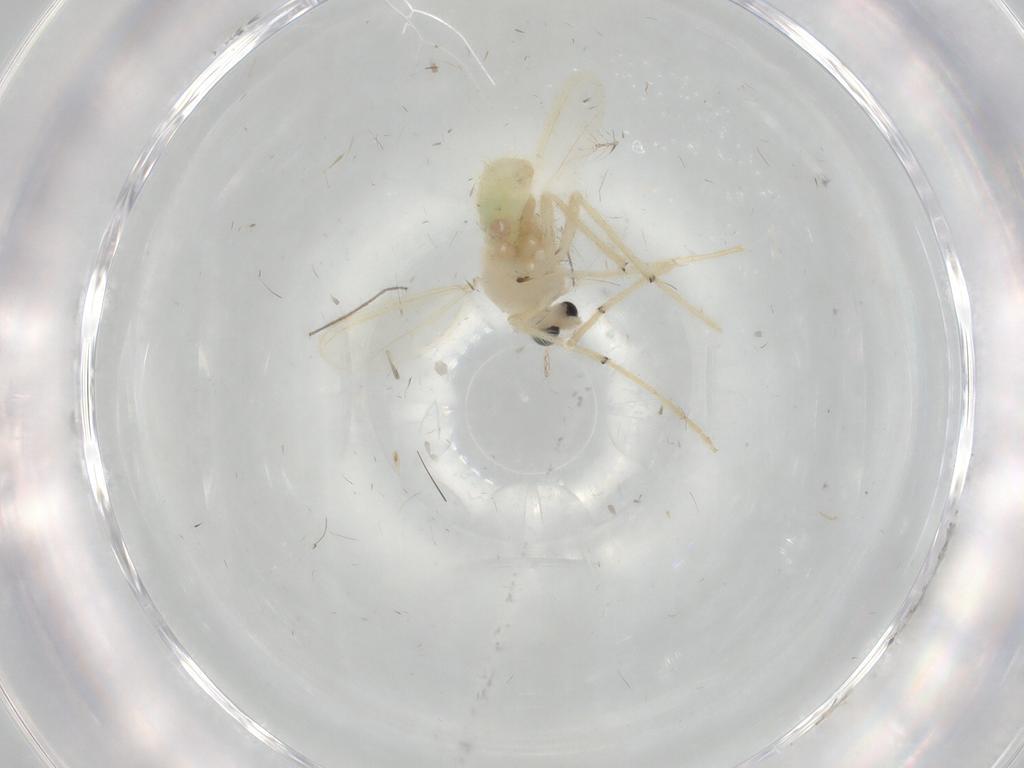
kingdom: Animalia
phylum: Arthropoda
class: Insecta
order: Diptera
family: Chironomidae
